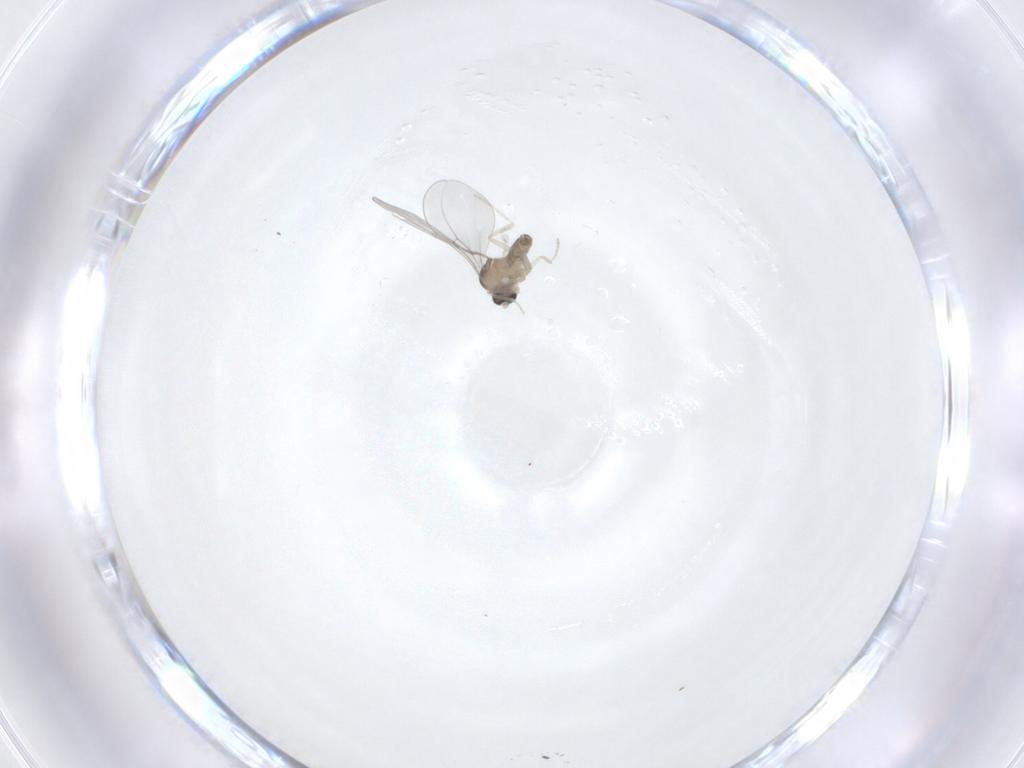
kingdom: Animalia
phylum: Arthropoda
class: Insecta
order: Diptera
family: Cecidomyiidae
